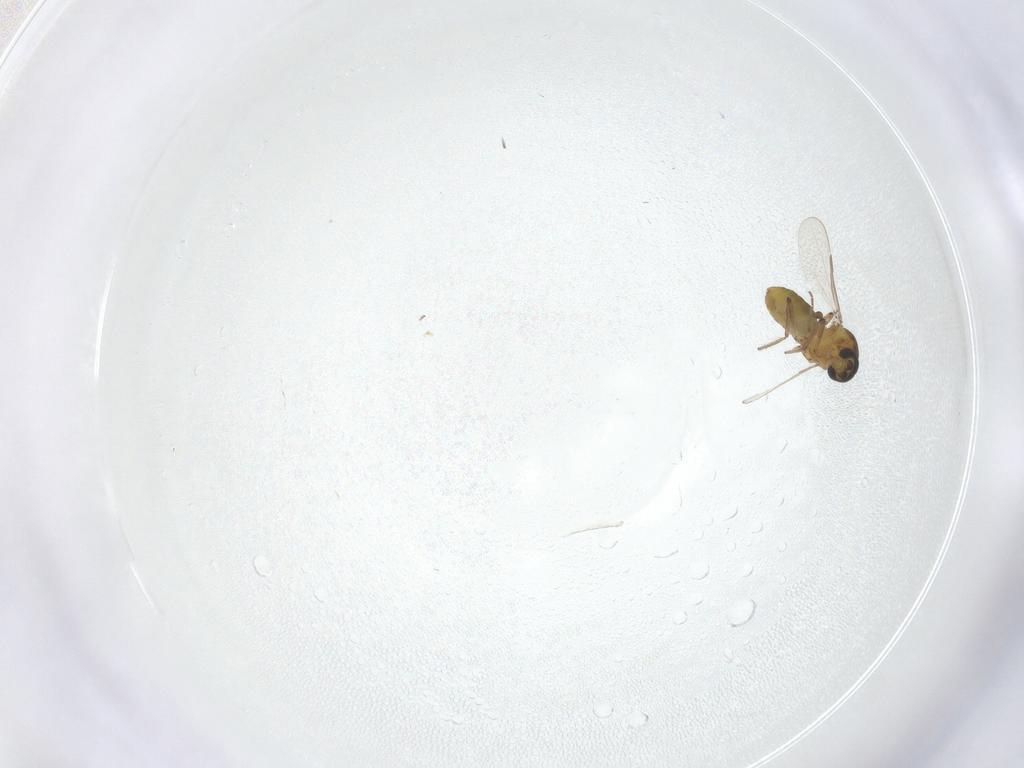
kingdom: Animalia
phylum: Arthropoda
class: Insecta
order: Diptera
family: Ceratopogonidae
